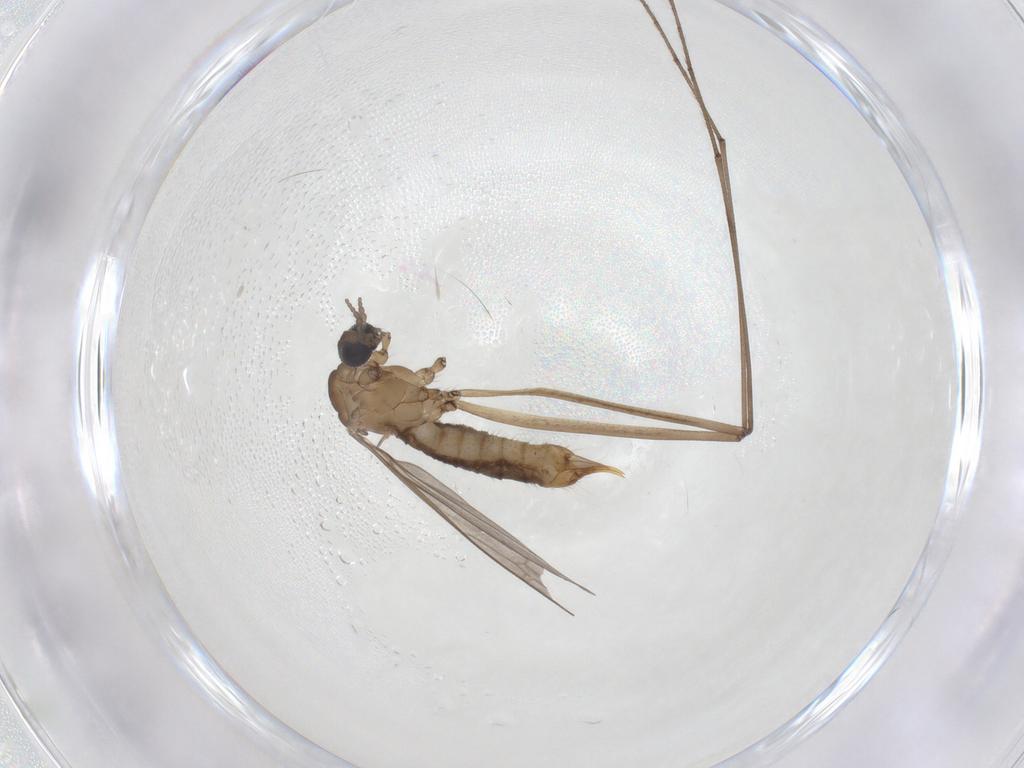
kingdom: Animalia
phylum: Arthropoda
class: Insecta
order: Diptera
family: Limoniidae
